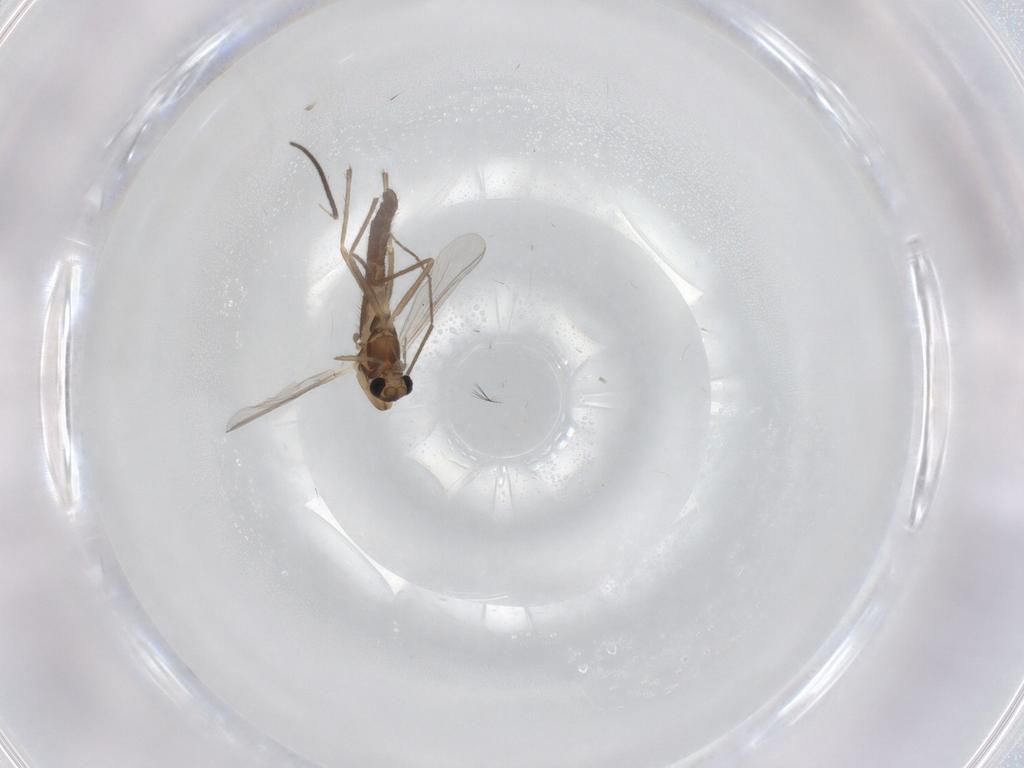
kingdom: Animalia
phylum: Arthropoda
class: Insecta
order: Diptera
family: Chironomidae
